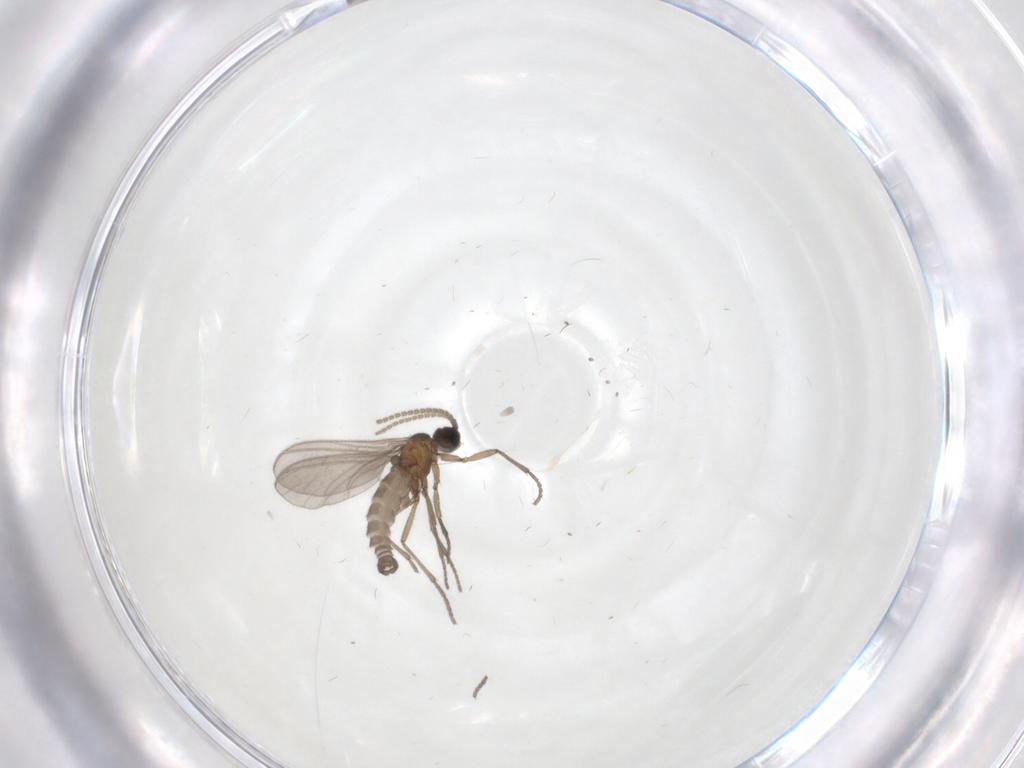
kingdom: Animalia
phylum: Arthropoda
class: Insecta
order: Diptera
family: Sciaridae
